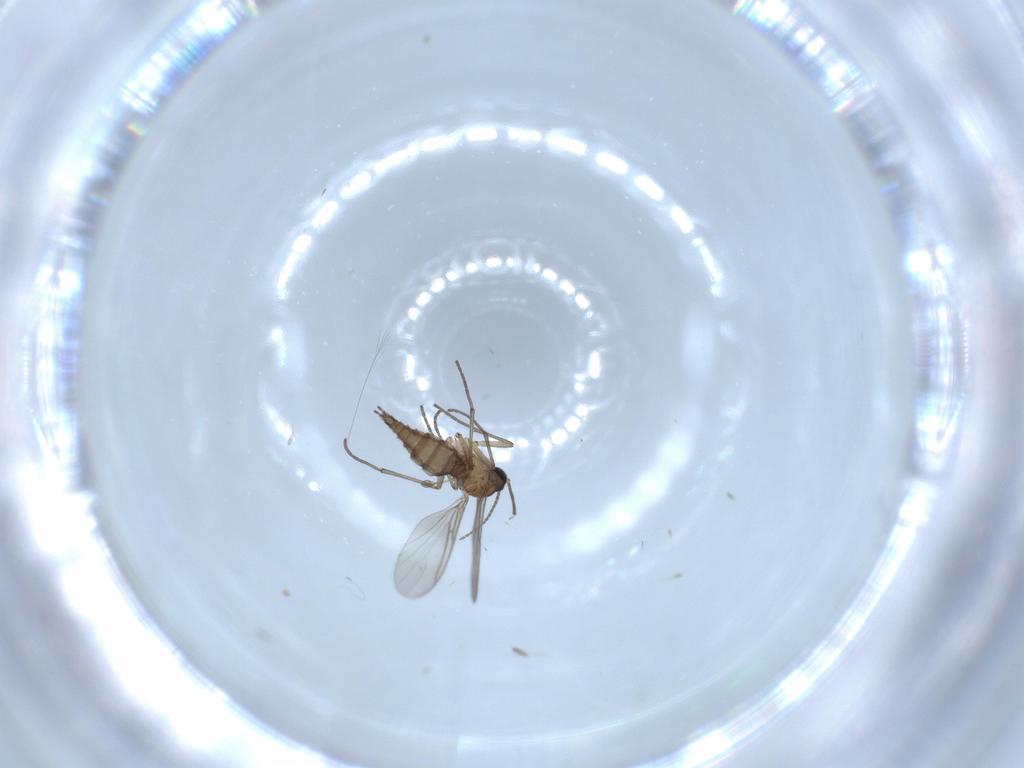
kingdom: Animalia
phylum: Arthropoda
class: Insecta
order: Diptera
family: Sciaridae
